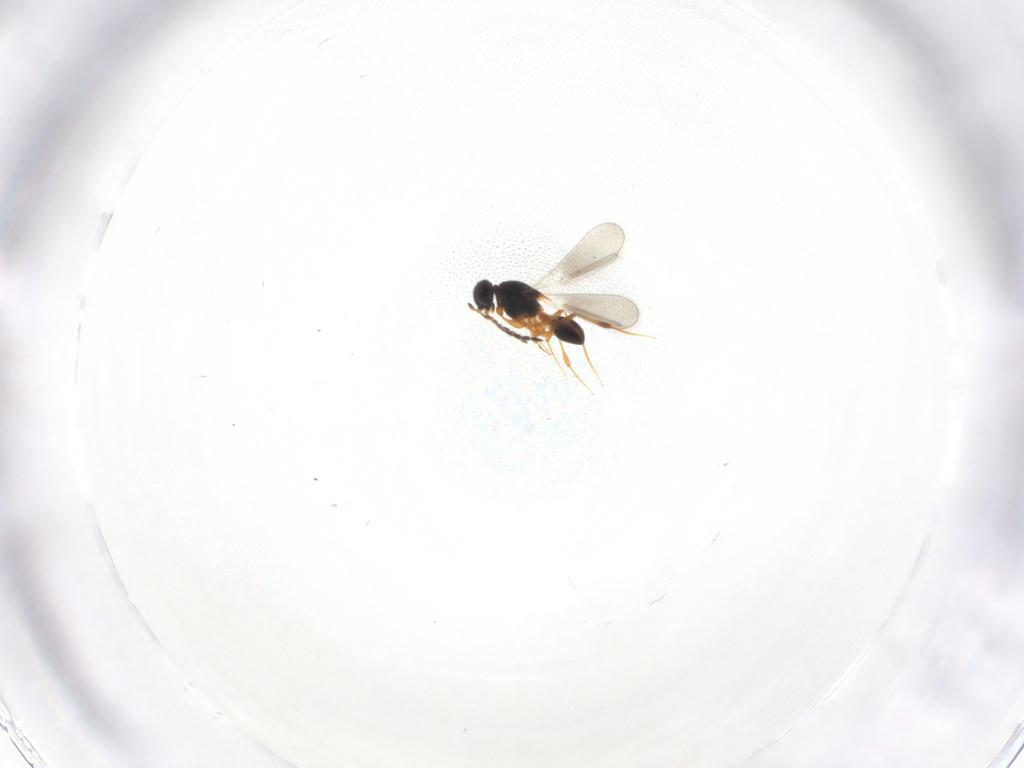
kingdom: Animalia
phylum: Arthropoda
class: Insecta
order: Hymenoptera
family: Platygastridae
